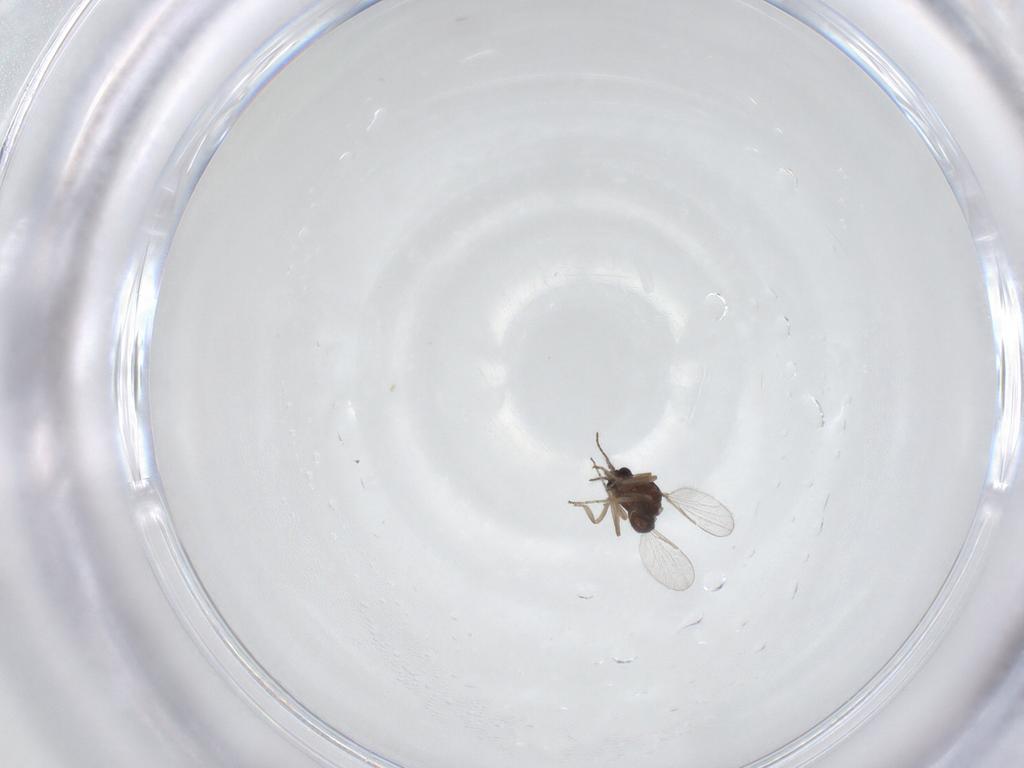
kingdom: Animalia
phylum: Arthropoda
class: Insecta
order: Diptera
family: Ceratopogonidae
